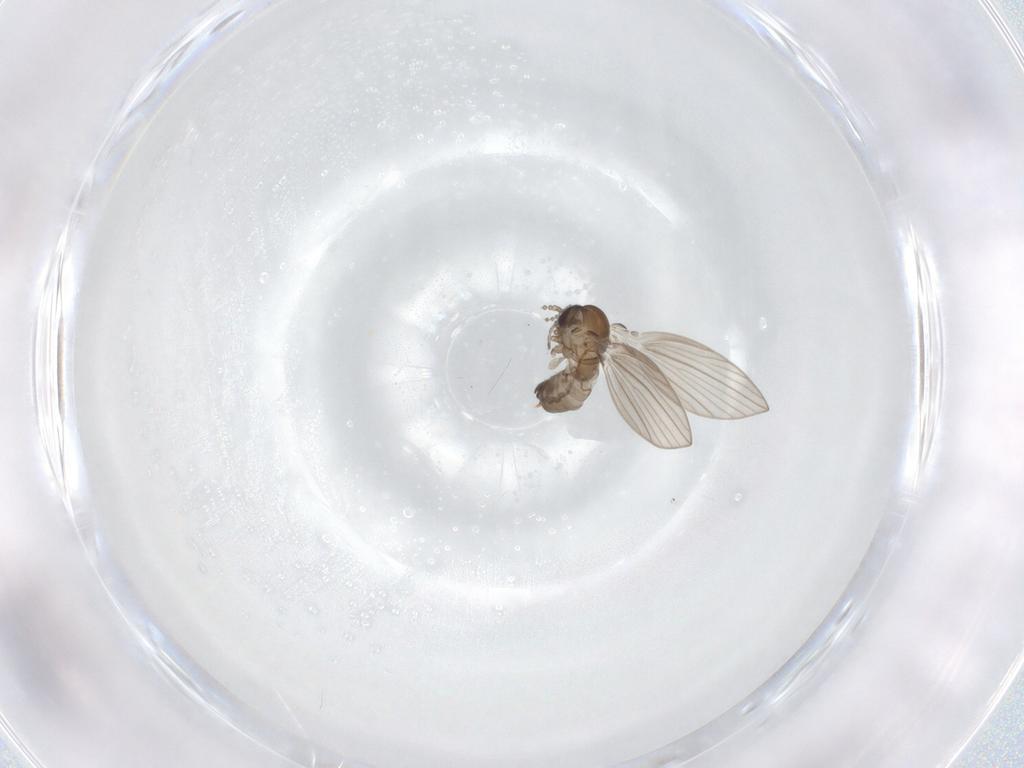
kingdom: Animalia
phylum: Arthropoda
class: Insecta
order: Diptera
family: Psychodidae
